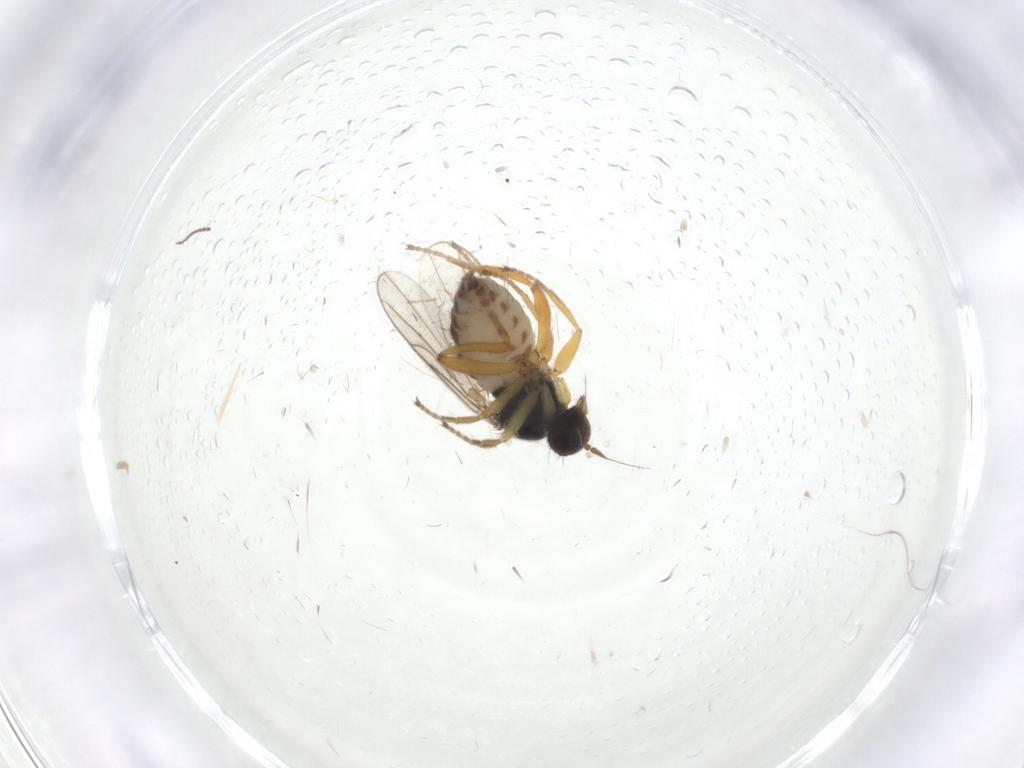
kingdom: Animalia
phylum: Arthropoda
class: Insecta
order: Diptera
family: Hybotidae
